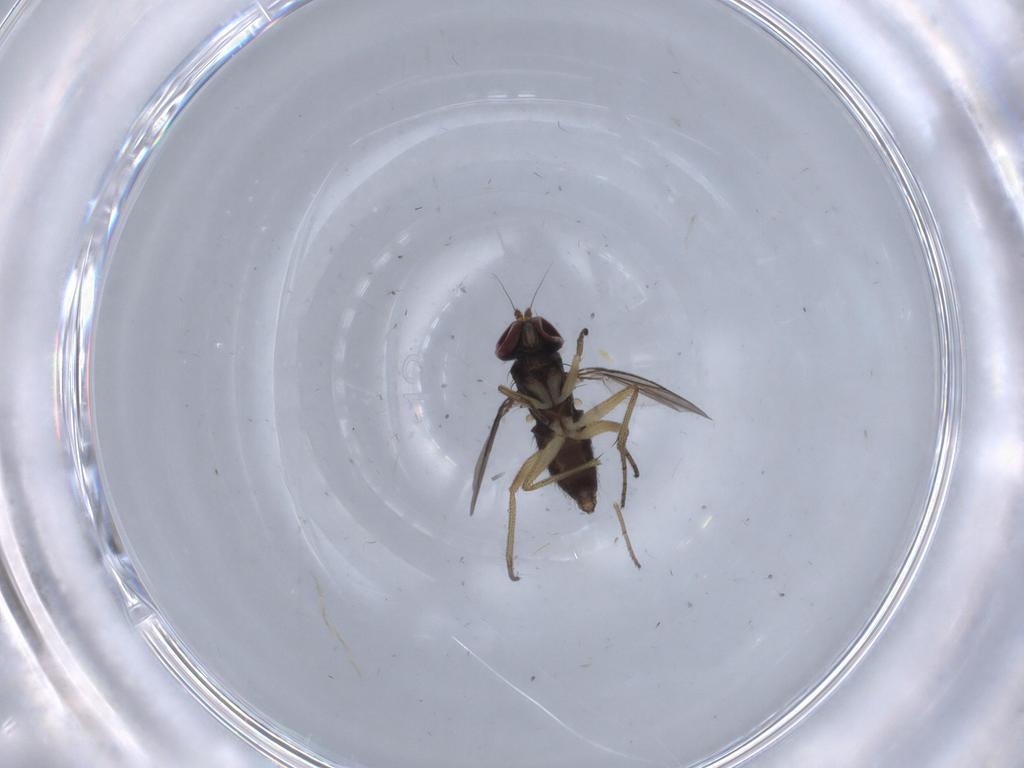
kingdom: Animalia
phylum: Arthropoda
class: Insecta
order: Diptera
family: Dolichopodidae
